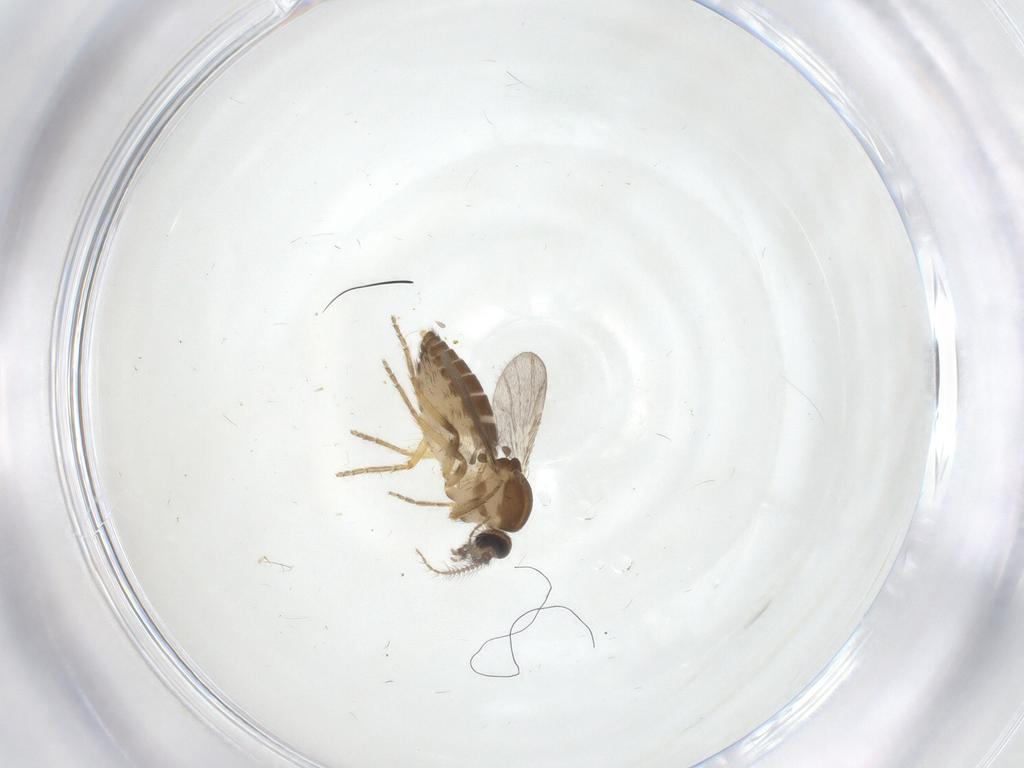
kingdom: Animalia
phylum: Arthropoda
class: Insecta
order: Diptera
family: Ceratopogonidae
